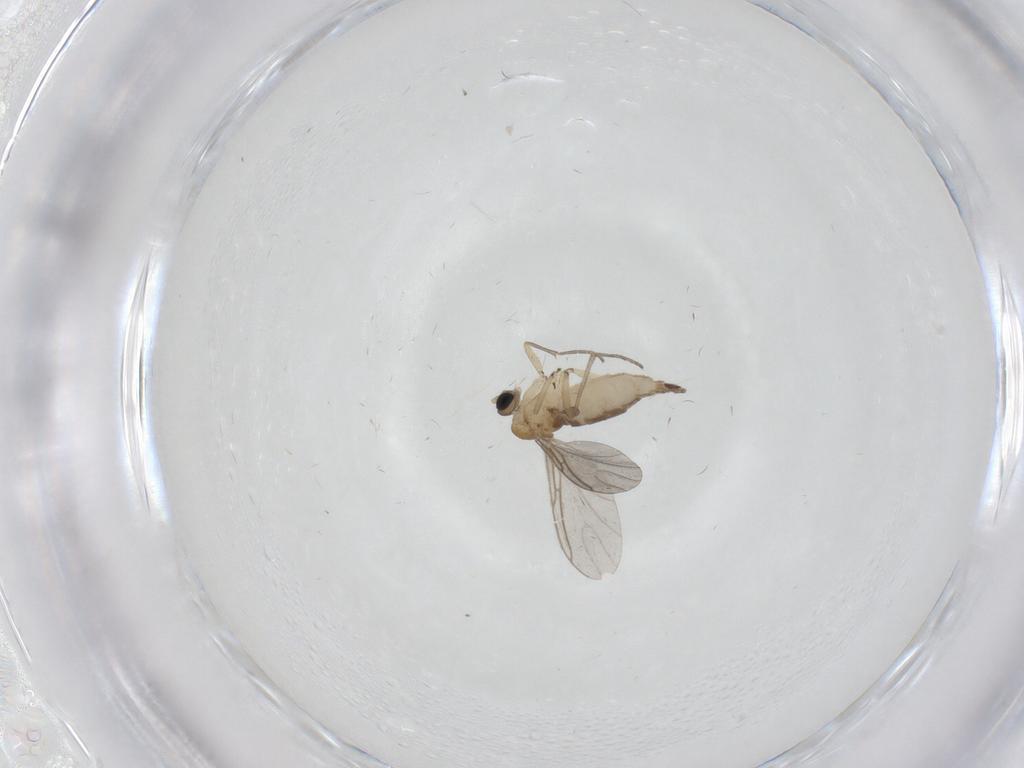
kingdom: Animalia
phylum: Arthropoda
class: Insecta
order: Diptera
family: Sciaridae
